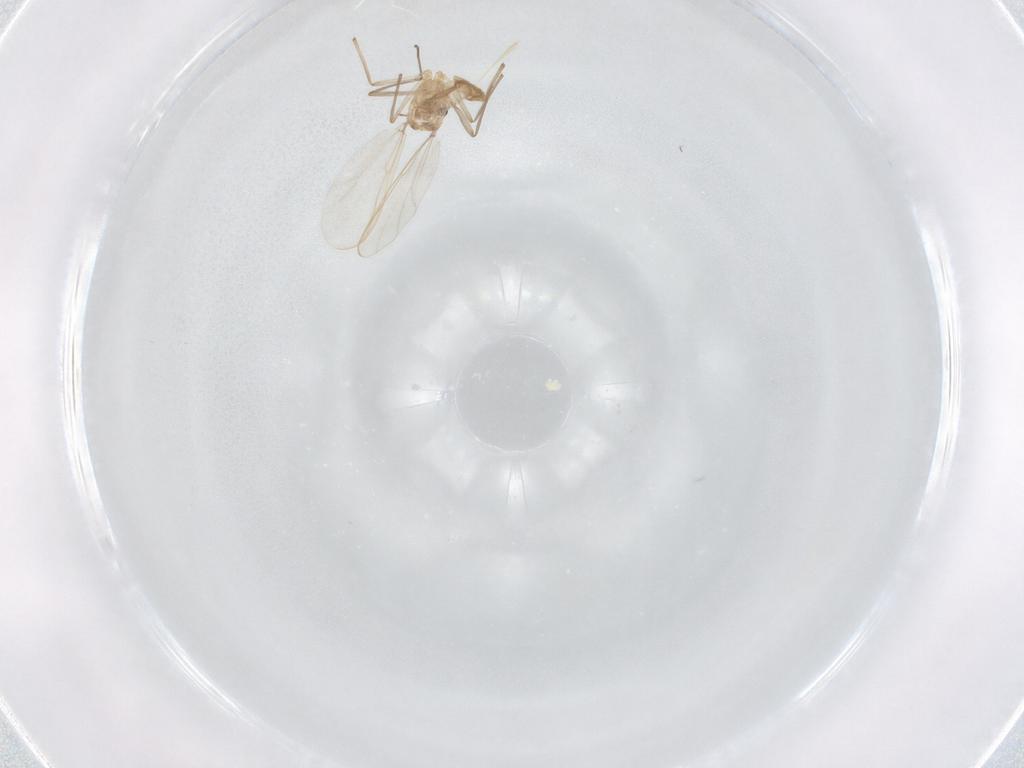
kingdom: Animalia
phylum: Arthropoda
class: Insecta
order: Diptera
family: Chironomidae
